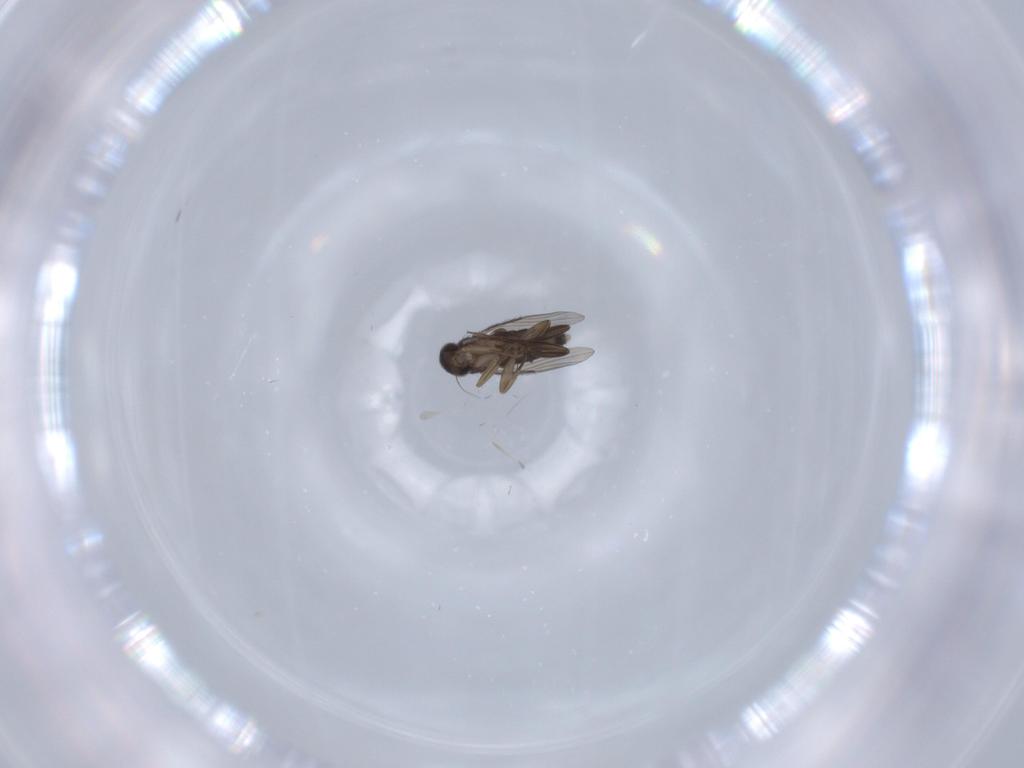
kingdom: Animalia
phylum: Arthropoda
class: Insecta
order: Diptera
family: Phoridae
